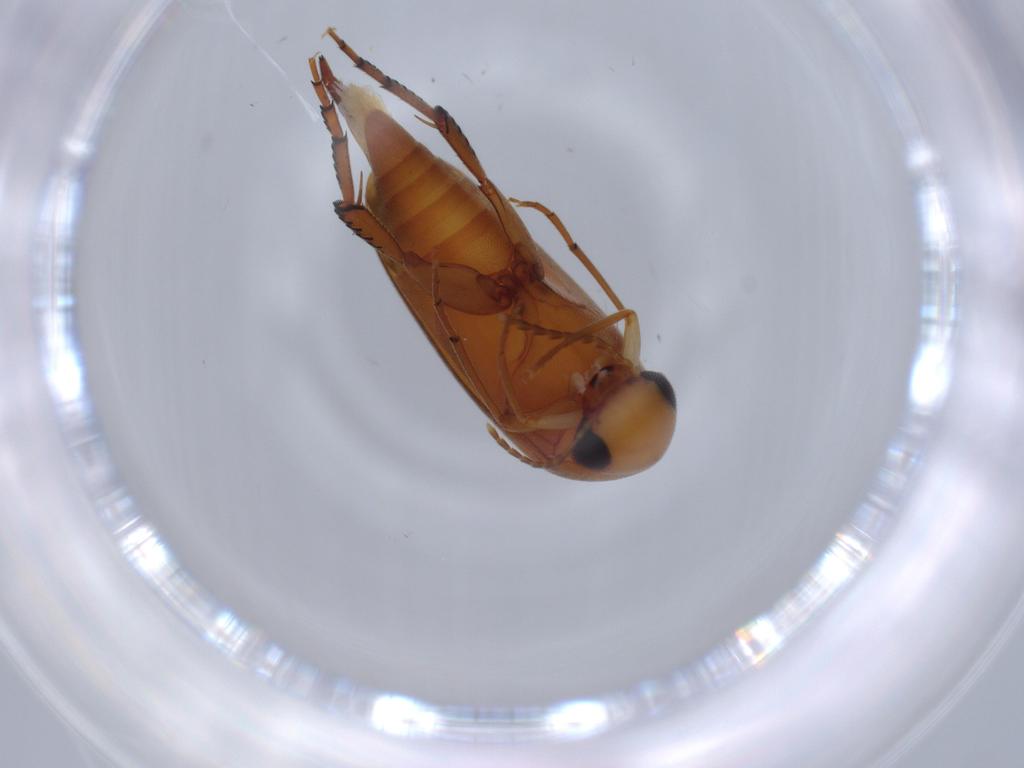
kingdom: Animalia
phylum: Arthropoda
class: Insecta
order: Coleoptera
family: Chrysomelidae
